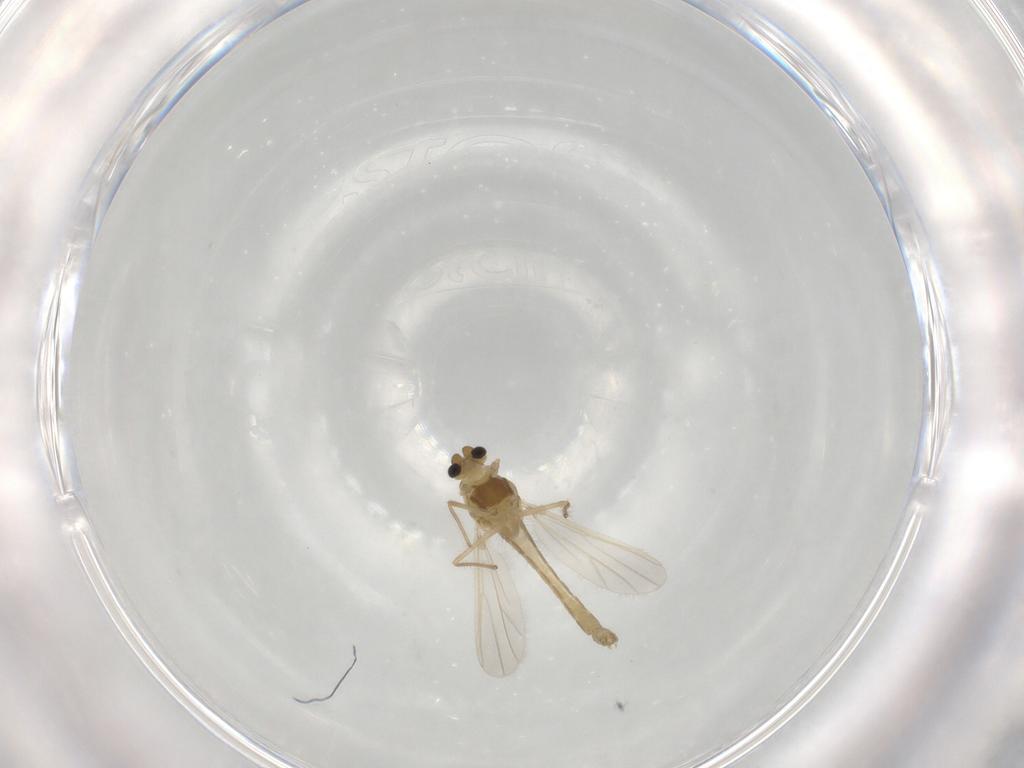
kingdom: Animalia
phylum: Arthropoda
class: Insecta
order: Diptera
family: Chironomidae
